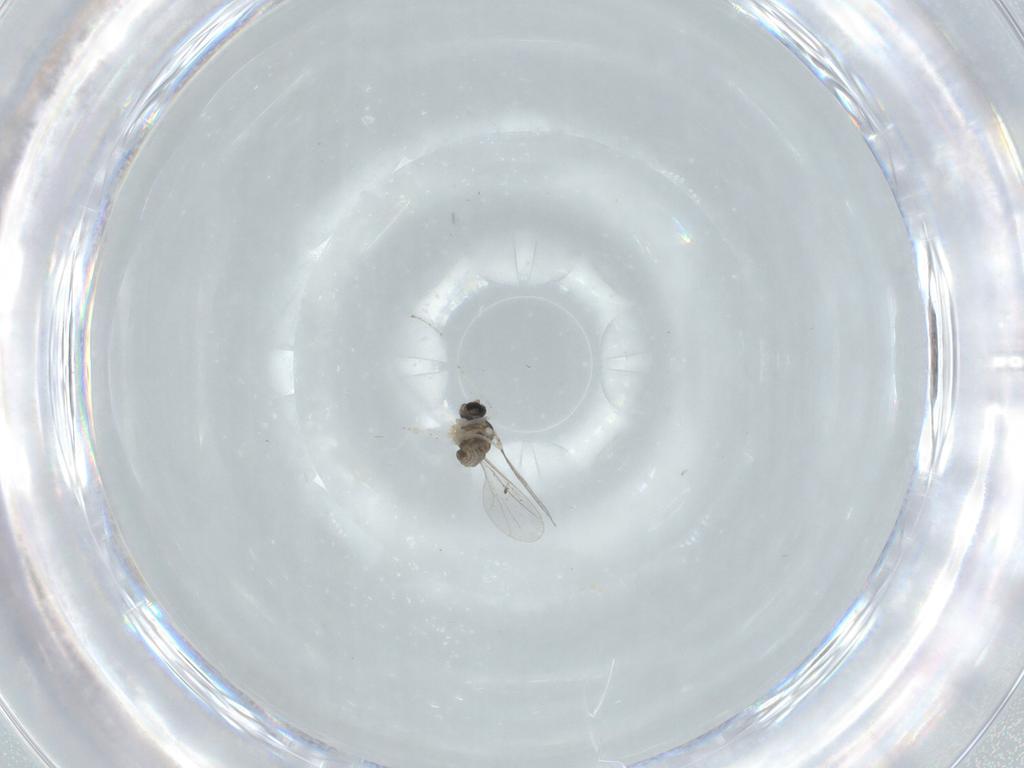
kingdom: Animalia
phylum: Arthropoda
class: Insecta
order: Diptera
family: Cecidomyiidae
